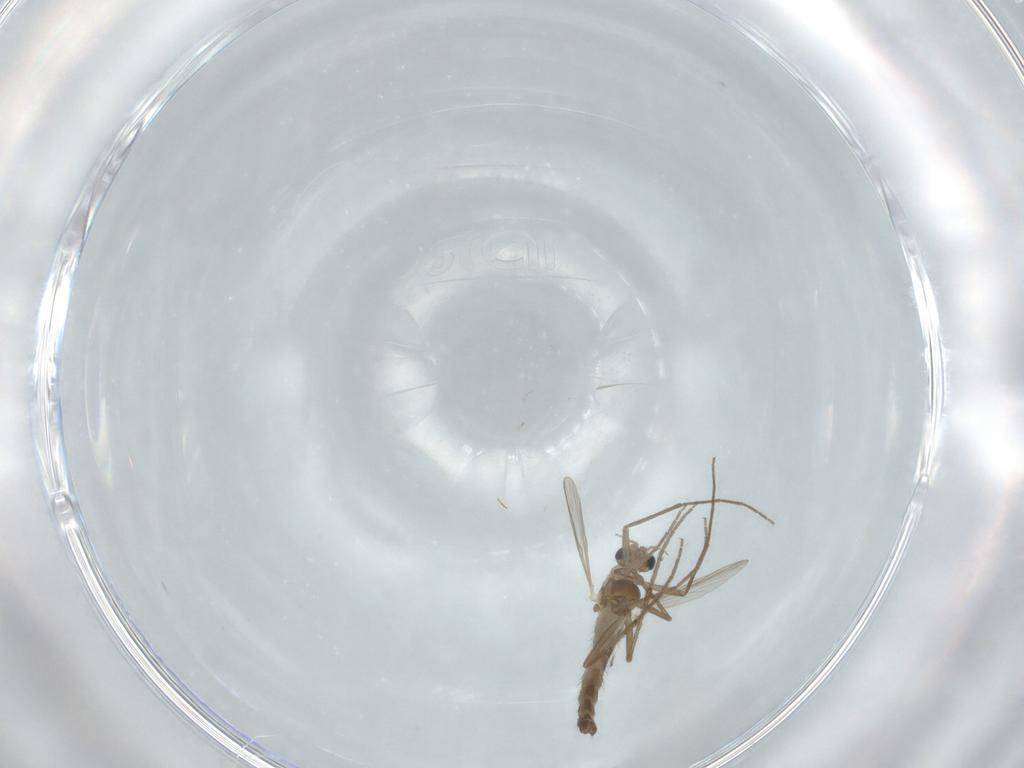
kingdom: Animalia
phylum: Arthropoda
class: Insecta
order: Diptera
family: Chironomidae
